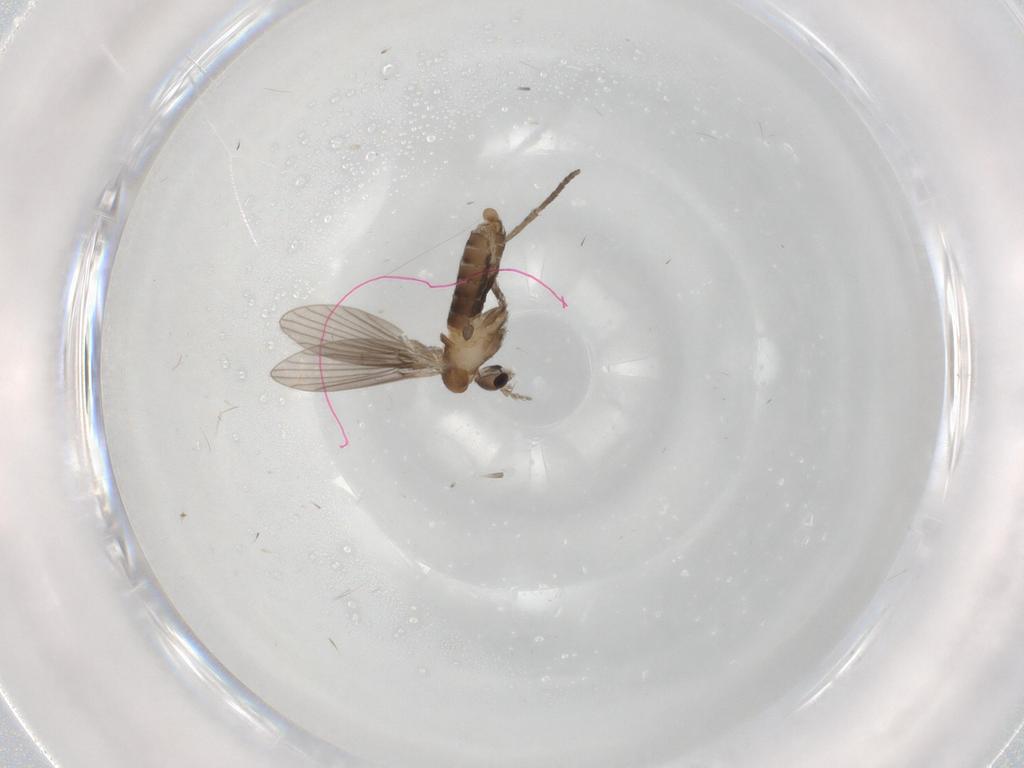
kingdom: Animalia
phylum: Arthropoda
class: Insecta
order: Diptera
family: Psychodidae
